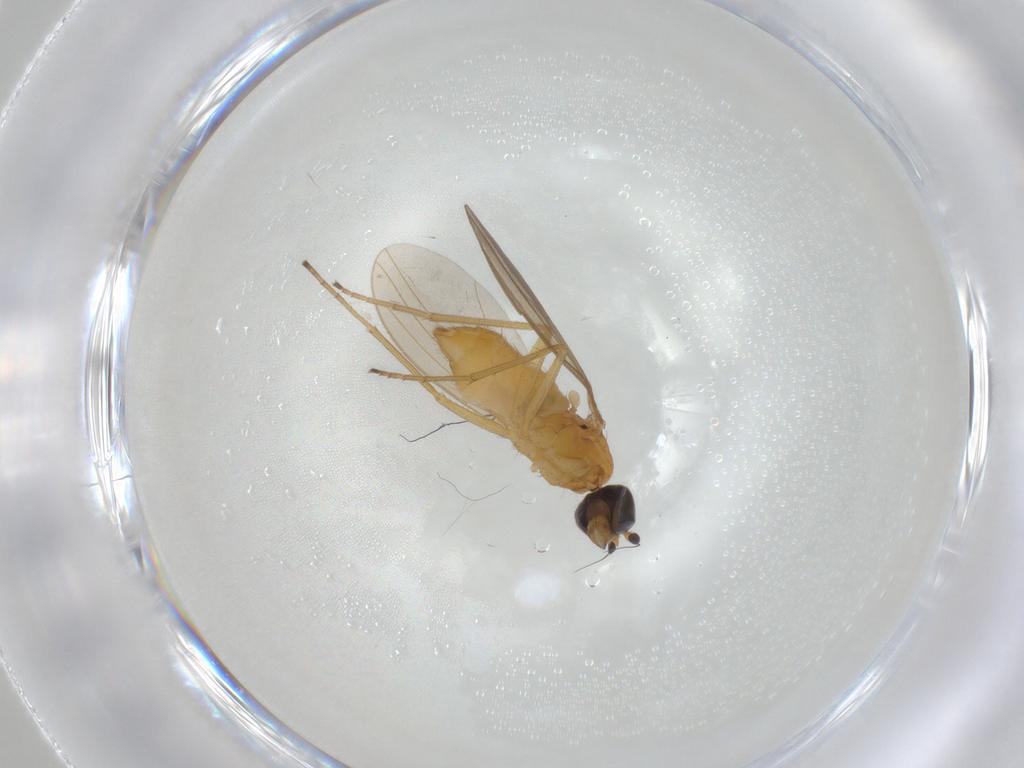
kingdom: Animalia
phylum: Arthropoda
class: Insecta
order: Diptera
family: Dolichopodidae
